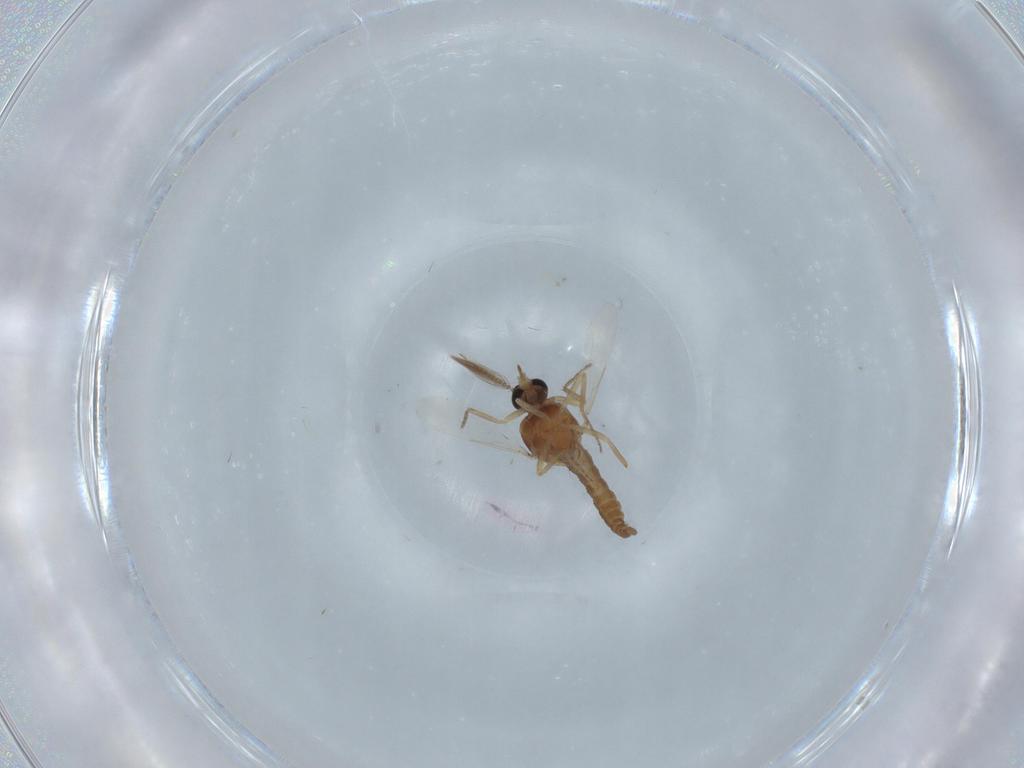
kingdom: Animalia
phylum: Arthropoda
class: Insecta
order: Diptera
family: Ceratopogonidae
